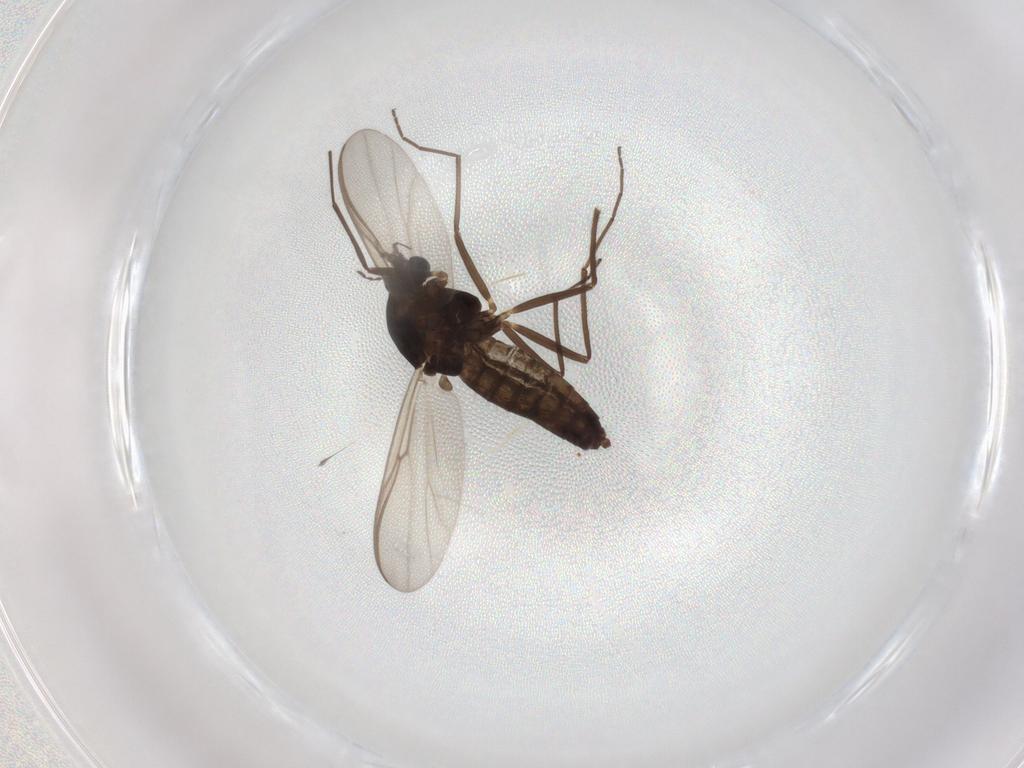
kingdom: Animalia
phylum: Arthropoda
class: Insecta
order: Diptera
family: Chironomidae
